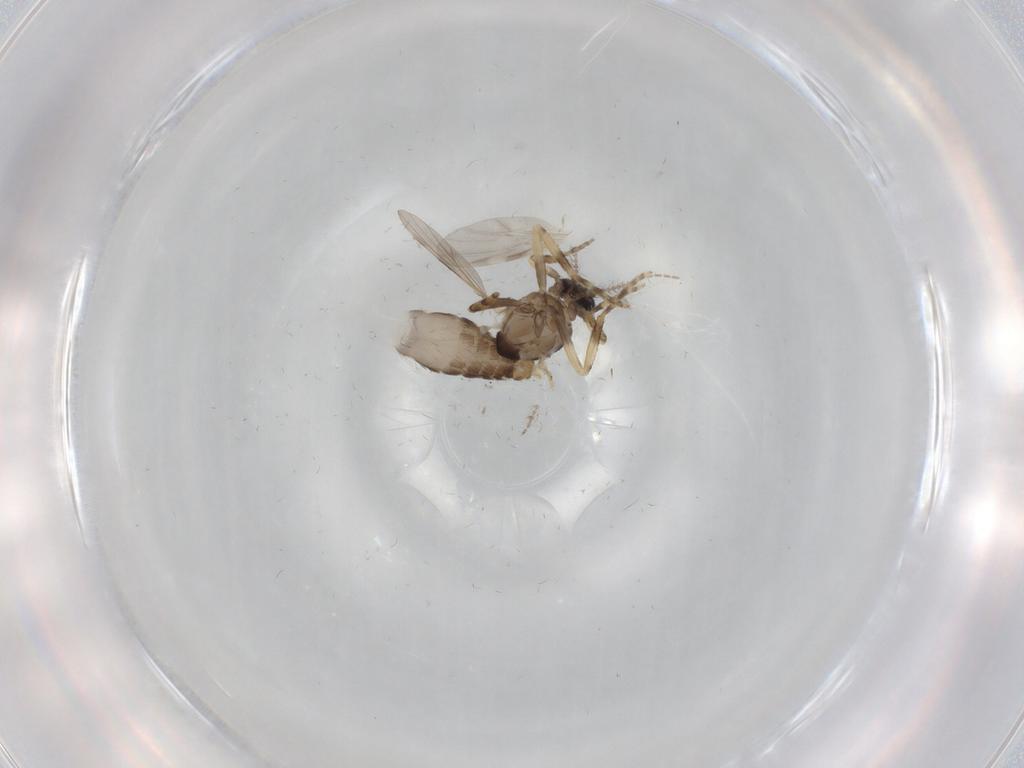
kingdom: Animalia
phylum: Arthropoda
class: Insecta
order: Diptera
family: Ceratopogonidae
